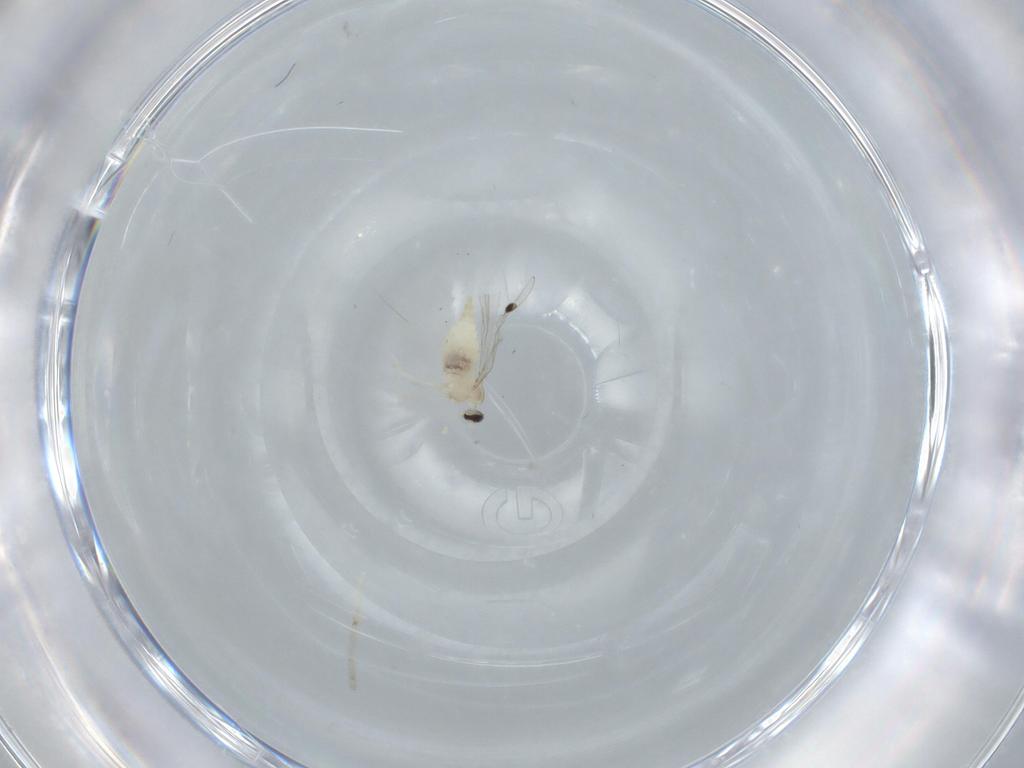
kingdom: Animalia
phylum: Arthropoda
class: Insecta
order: Diptera
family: Cecidomyiidae
